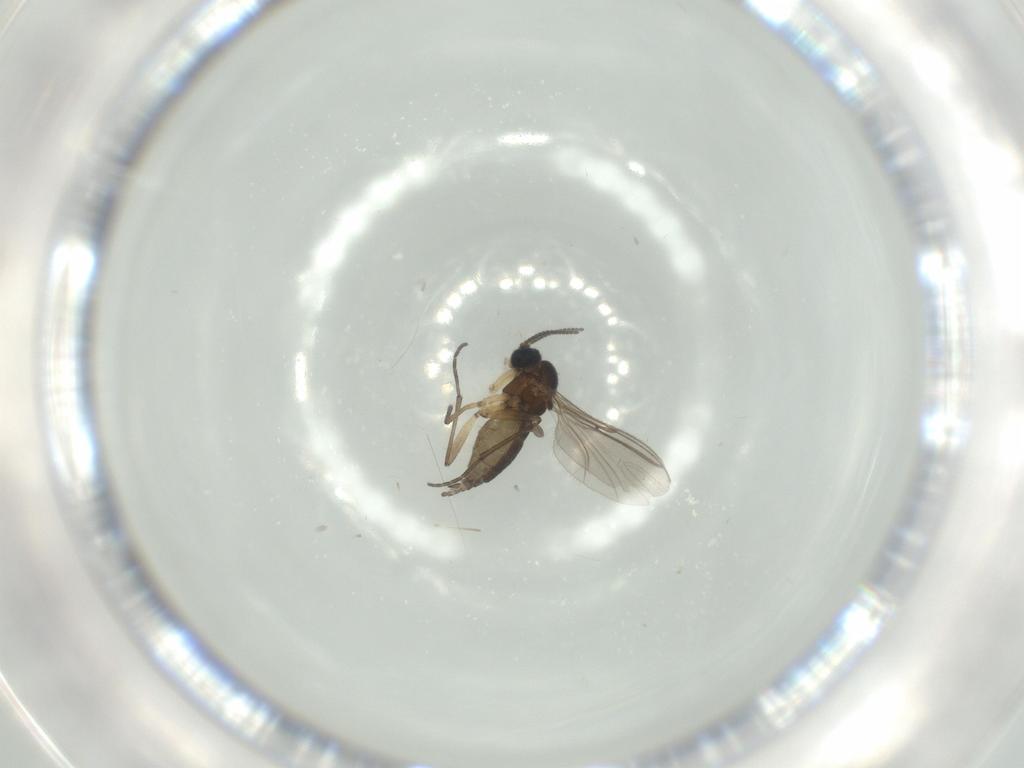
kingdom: Animalia
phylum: Arthropoda
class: Insecta
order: Diptera
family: Sciaridae
